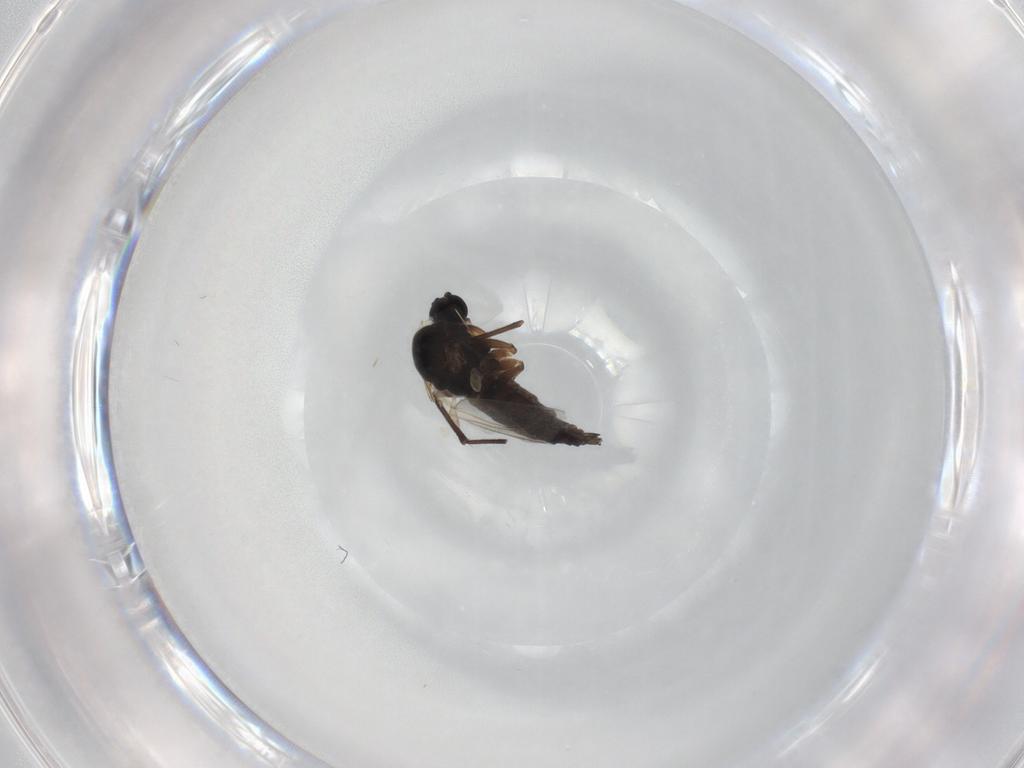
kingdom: Animalia
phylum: Arthropoda
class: Insecta
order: Diptera
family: Sciaridae
